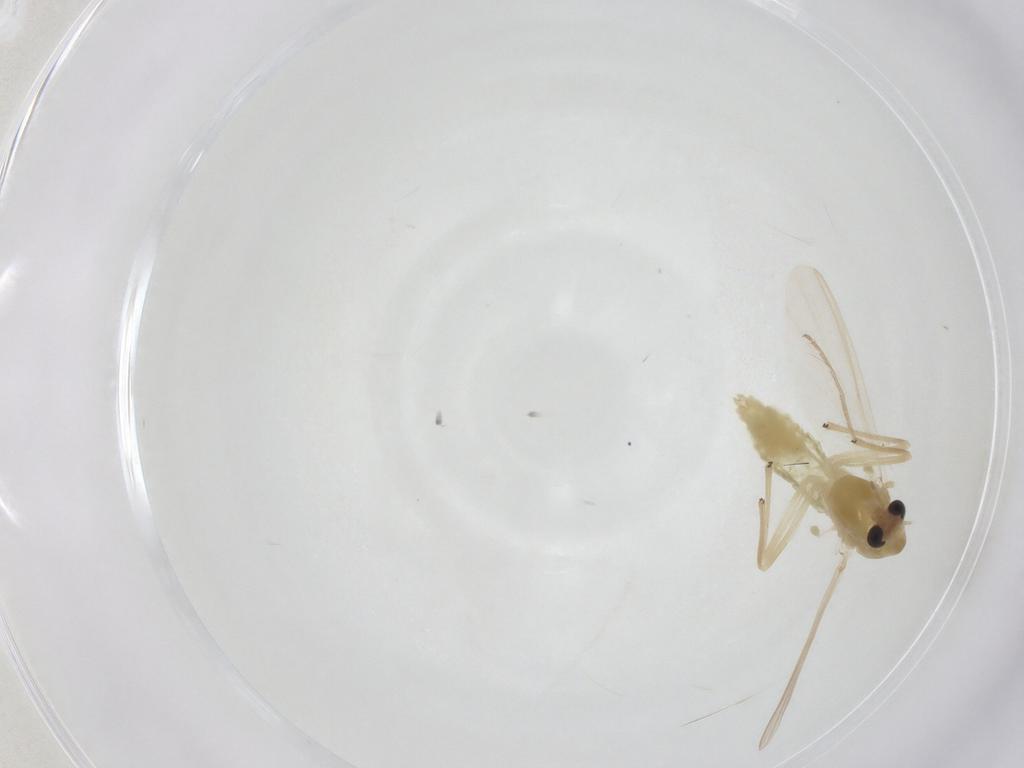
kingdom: Animalia
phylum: Arthropoda
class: Insecta
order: Diptera
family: Chironomidae
